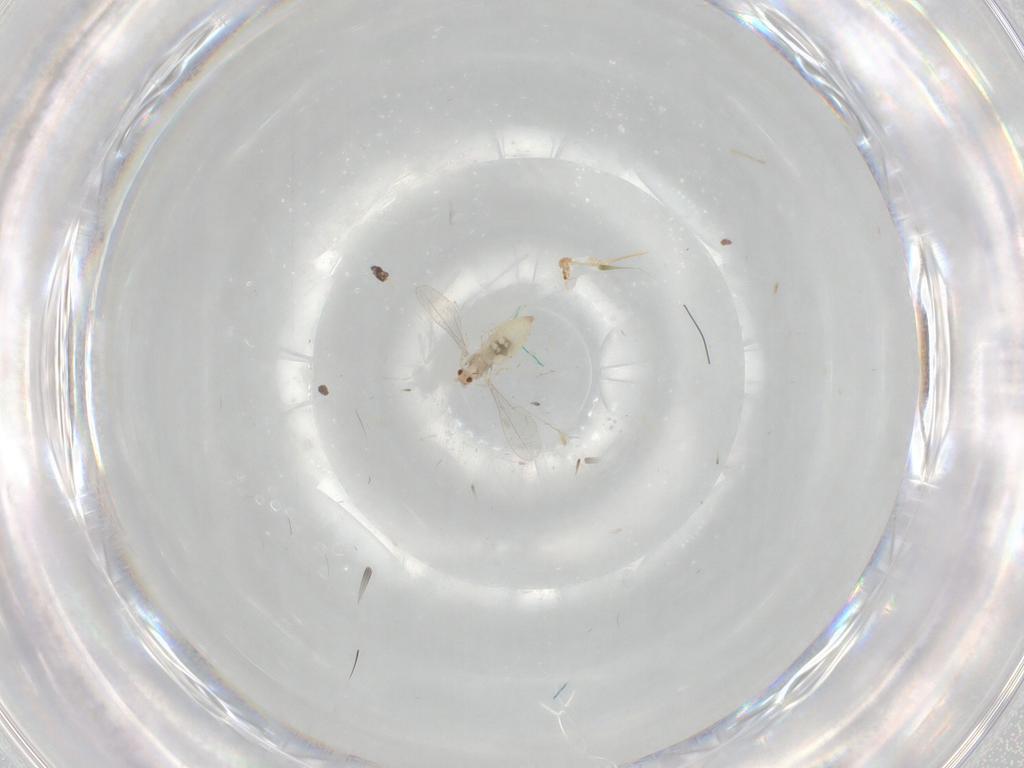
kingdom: Animalia
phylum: Arthropoda
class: Insecta
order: Diptera
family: Cecidomyiidae
